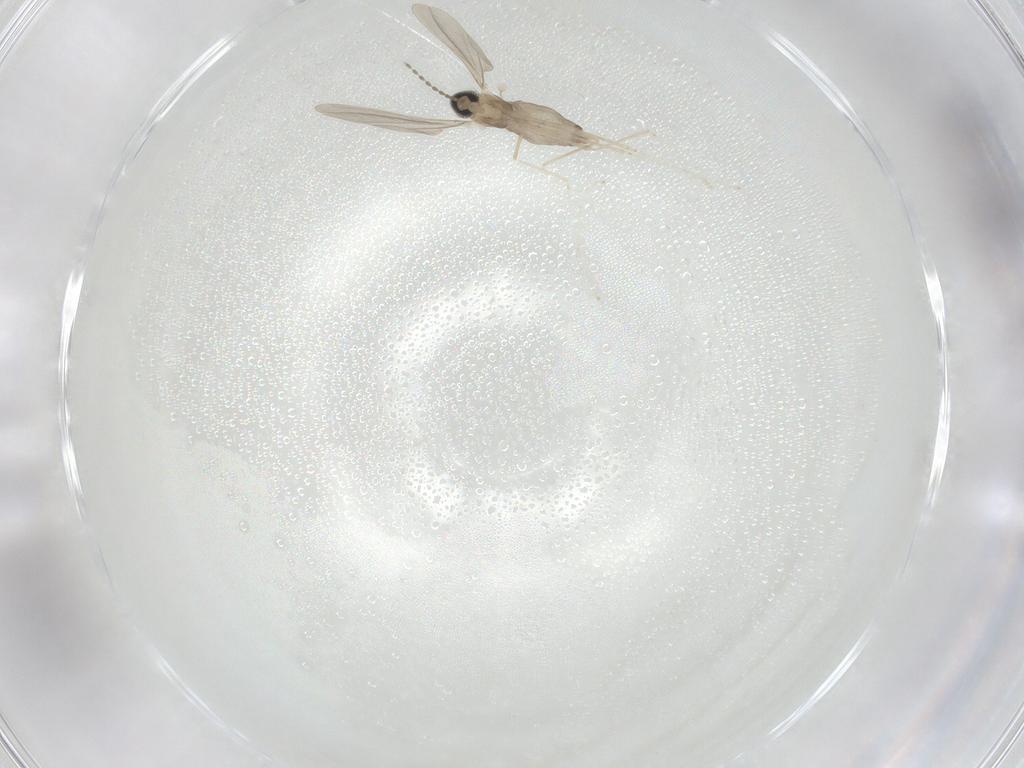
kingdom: Animalia
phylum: Arthropoda
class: Insecta
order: Diptera
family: Cecidomyiidae
